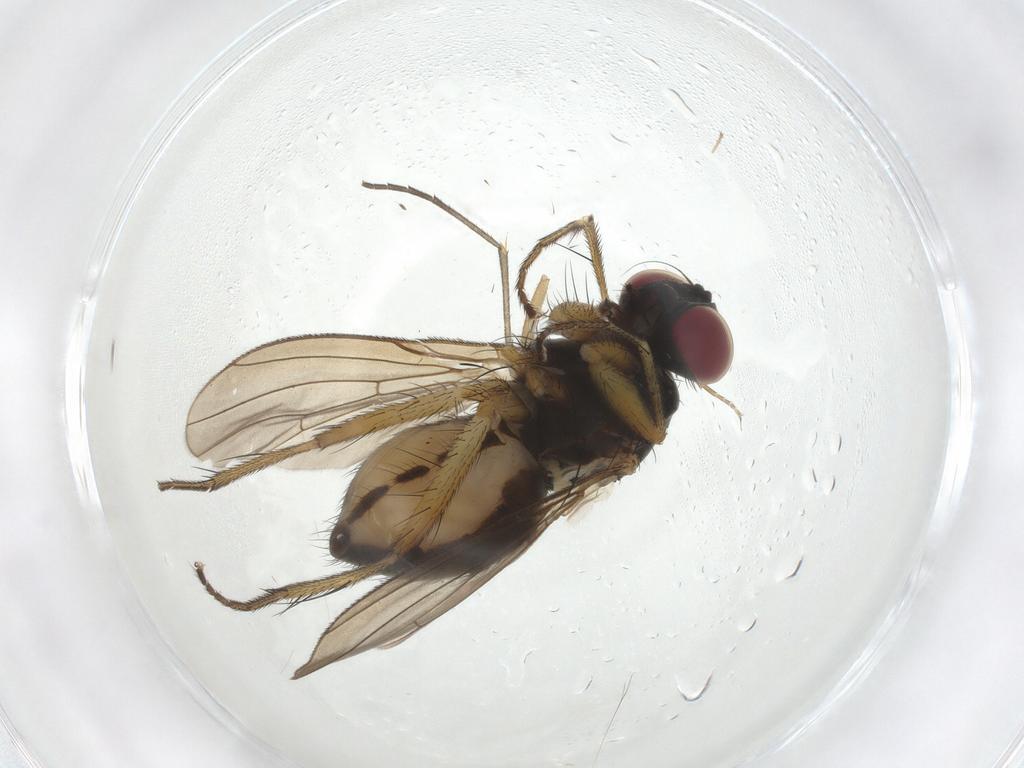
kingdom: Animalia
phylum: Arthropoda
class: Insecta
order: Diptera
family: Muscidae
